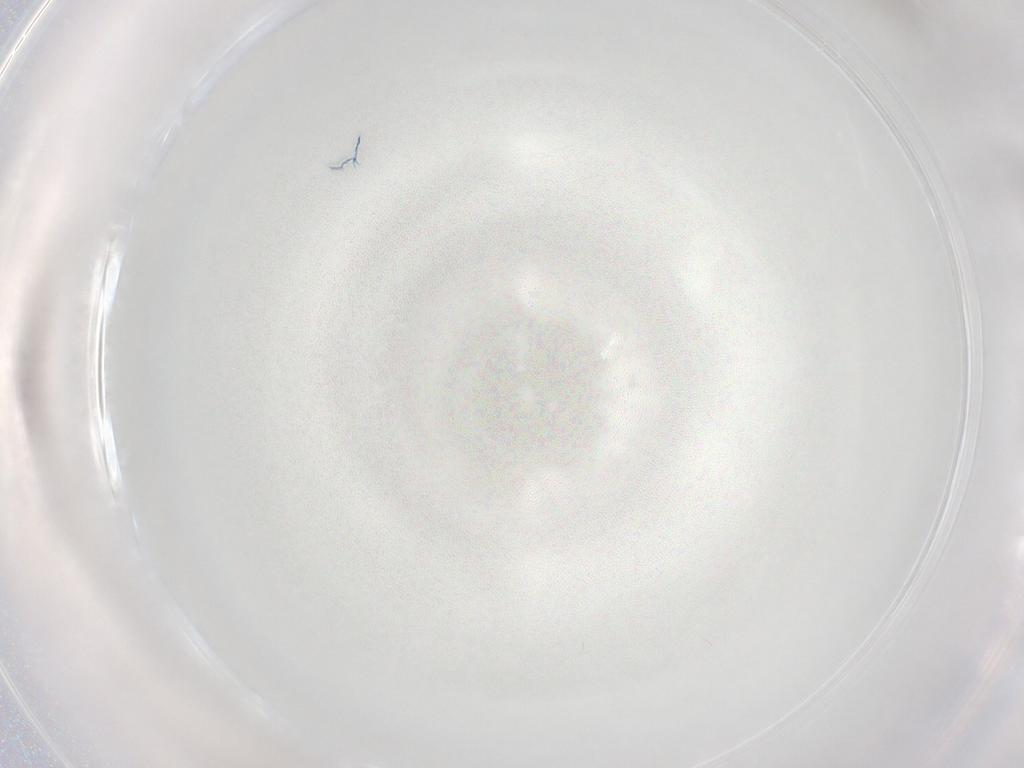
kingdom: Animalia
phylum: Arthropoda
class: Arachnida
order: Trombidiformes
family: Eupodidae
